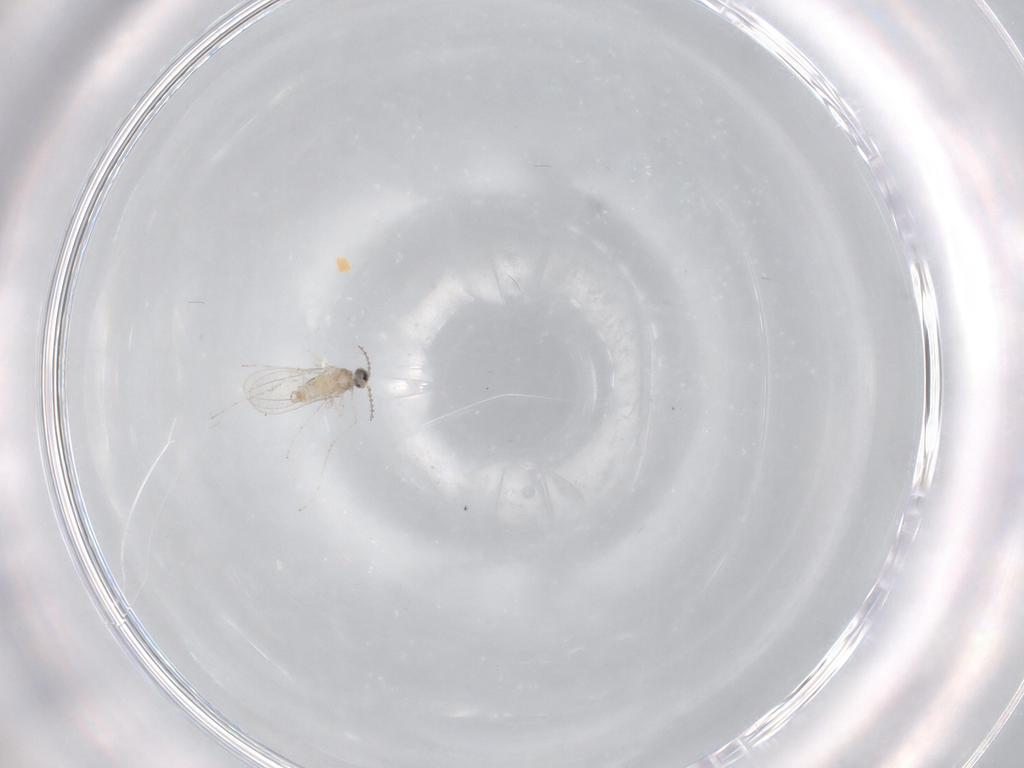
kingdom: Animalia
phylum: Arthropoda
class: Insecta
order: Diptera
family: Cecidomyiidae
